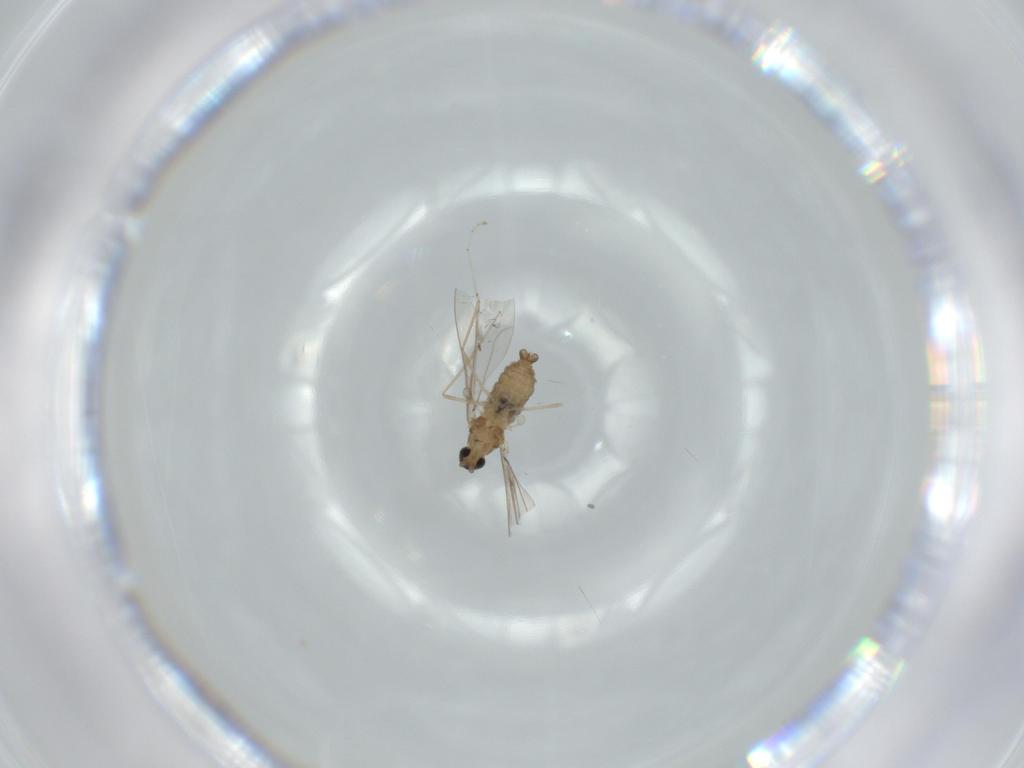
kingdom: Animalia
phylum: Arthropoda
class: Insecta
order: Diptera
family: Cecidomyiidae
